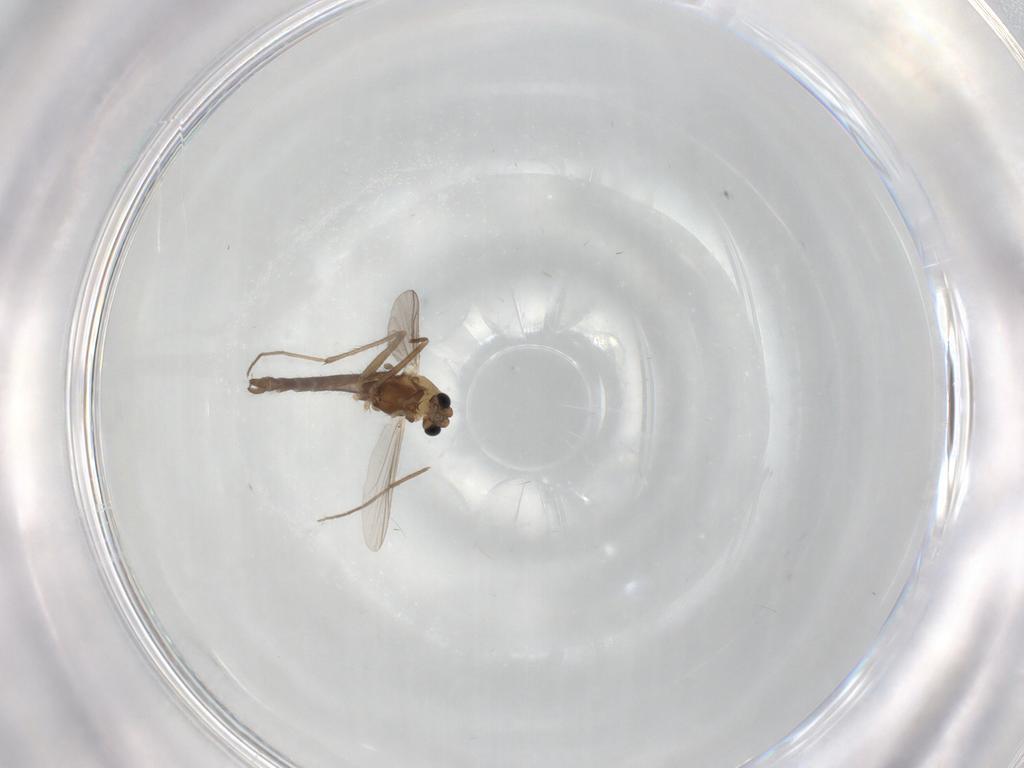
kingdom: Animalia
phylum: Arthropoda
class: Insecta
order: Diptera
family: Chironomidae
